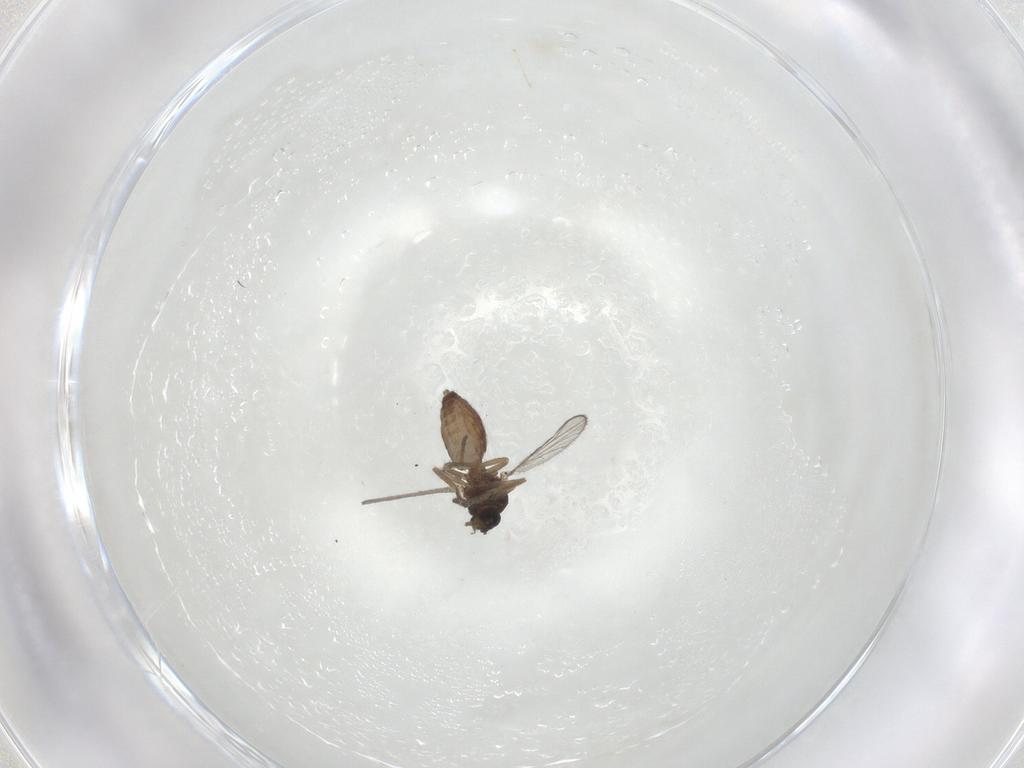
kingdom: Animalia
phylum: Arthropoda
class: Insecta
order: Diptera
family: Ceratopogonidae
